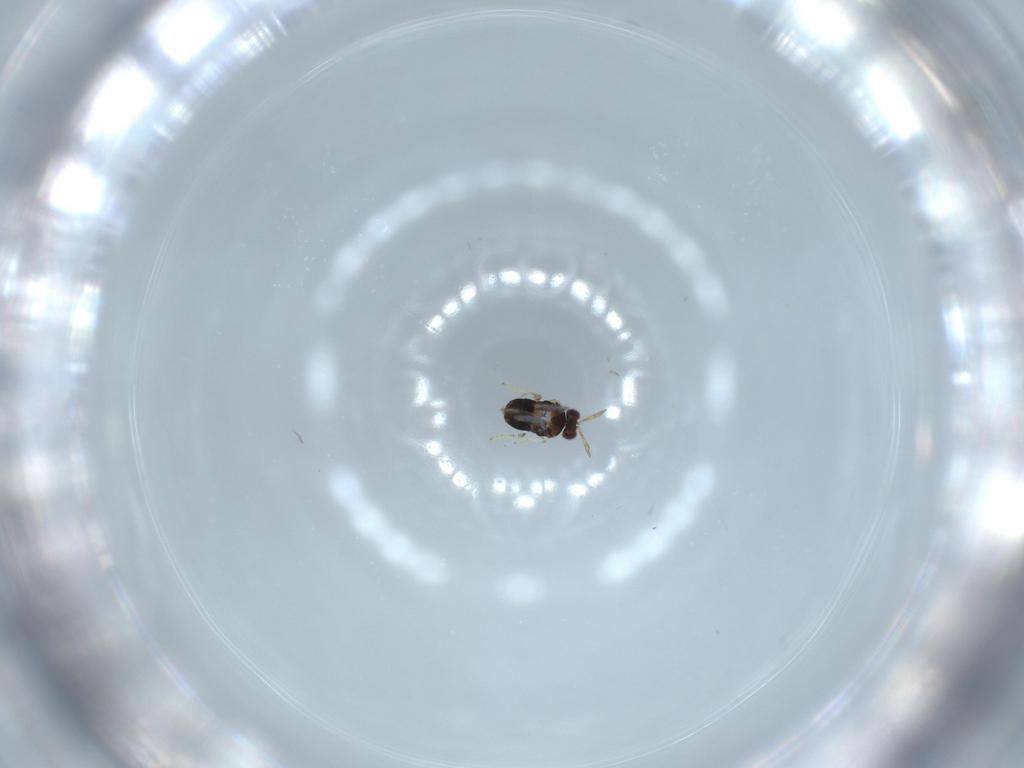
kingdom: Animalia
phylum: Arthropoda
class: Insecta
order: Hymenoptera
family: Aphelinidae
